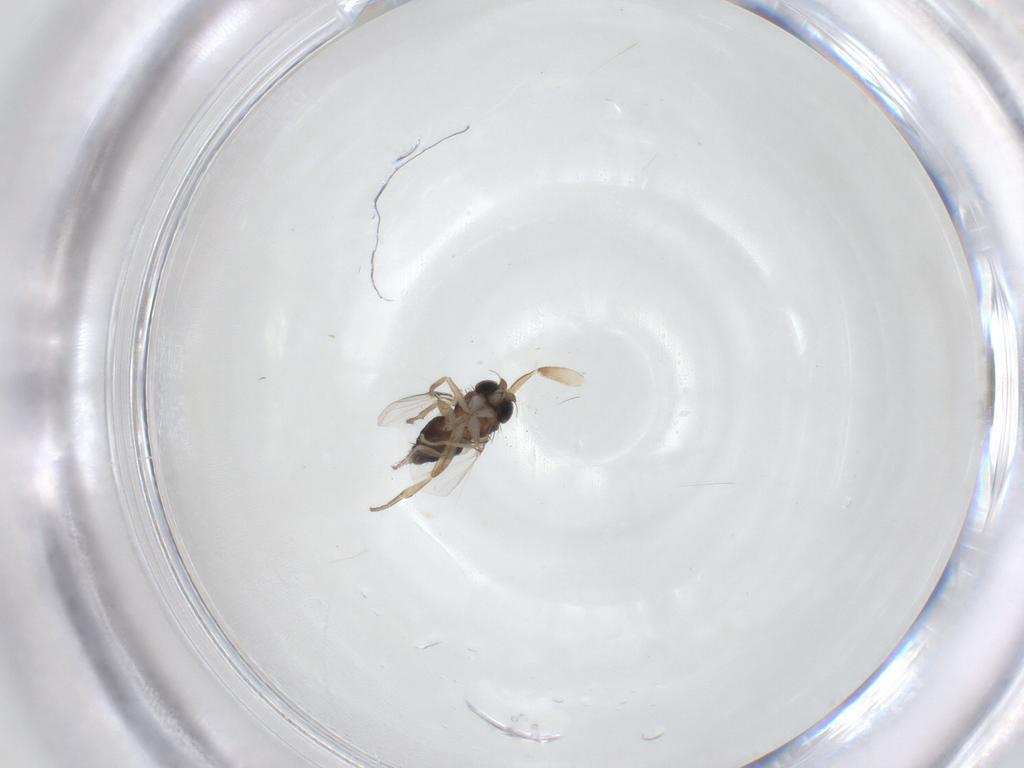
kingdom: Animalia
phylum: Arthropoda
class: Insecta
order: Diptera
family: Phoridae
